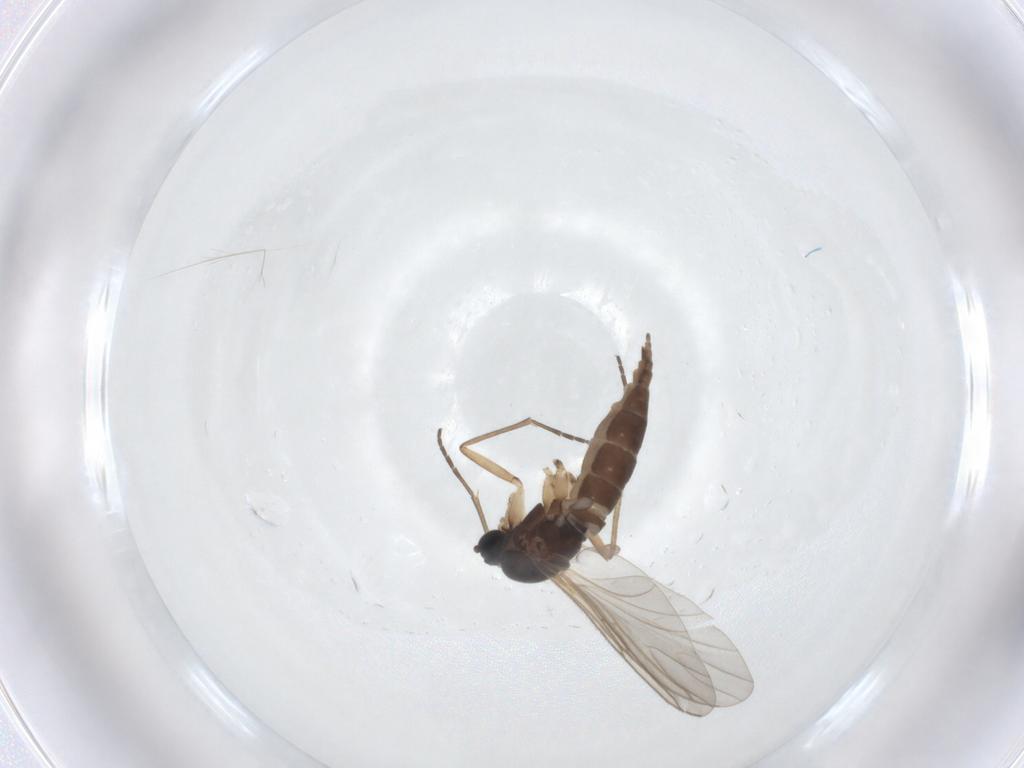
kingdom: Animalia
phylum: Arthropoda
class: Insecta
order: Diptera
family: Sciaridae
